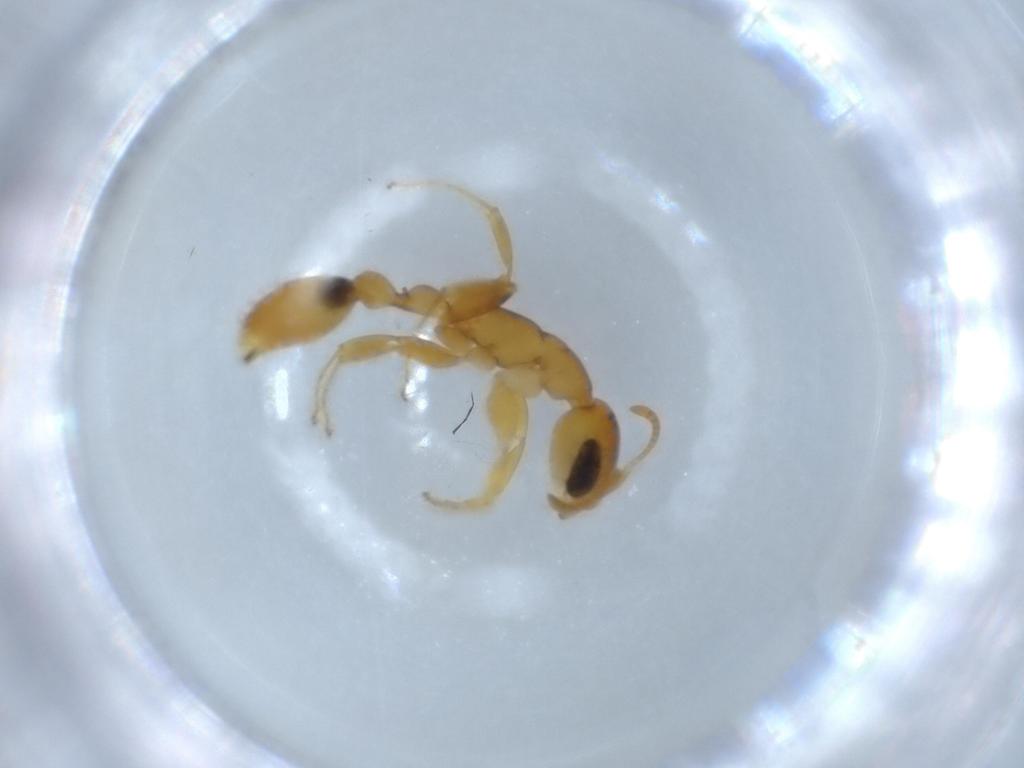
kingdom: Animalia
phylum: Arthropoda
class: Insecta
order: Hymenoptera
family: Formicidae
